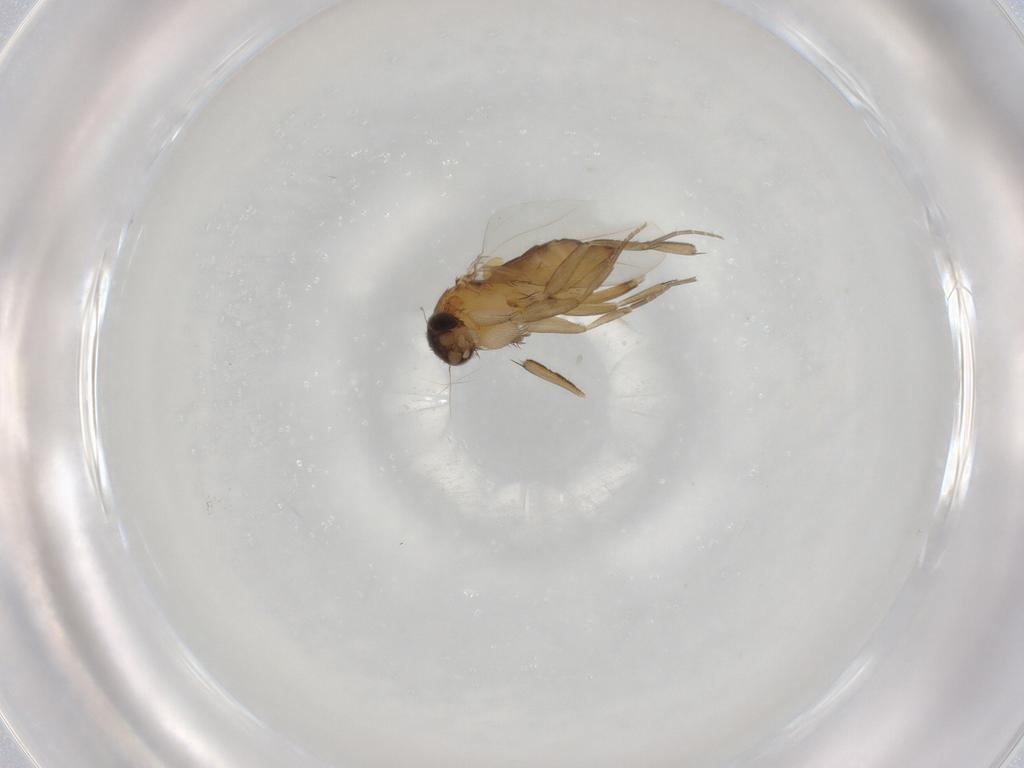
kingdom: Animalia
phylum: Arthropoda
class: Insecta
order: Diptera
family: Phoridae
